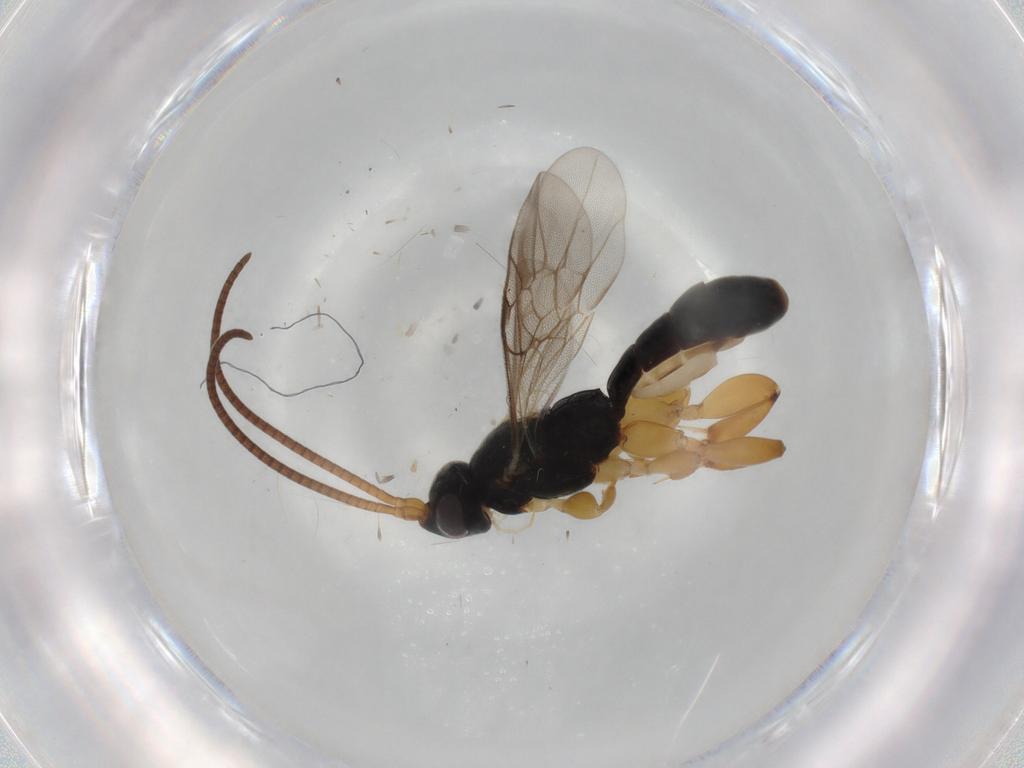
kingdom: Animalia
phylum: Arthropoda
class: Insecta
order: Hymenoptera
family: Ichneumonidae
